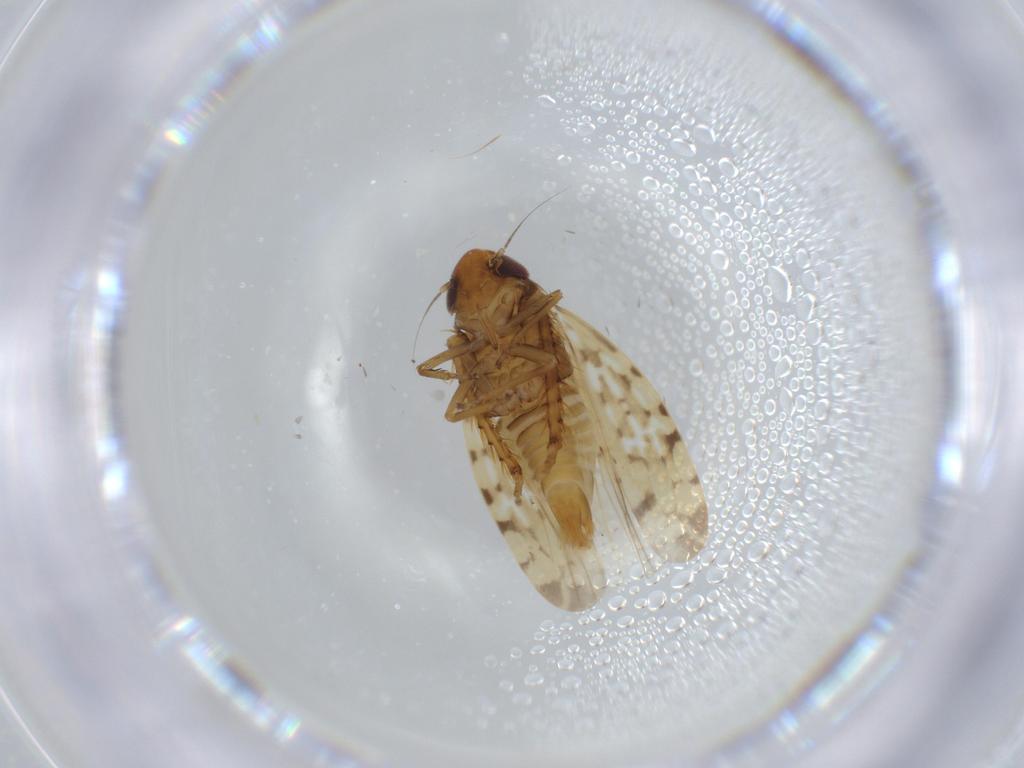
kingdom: Animalia
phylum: Arthropoda
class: Insecta
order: Hemiptera
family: Cicadellidae
